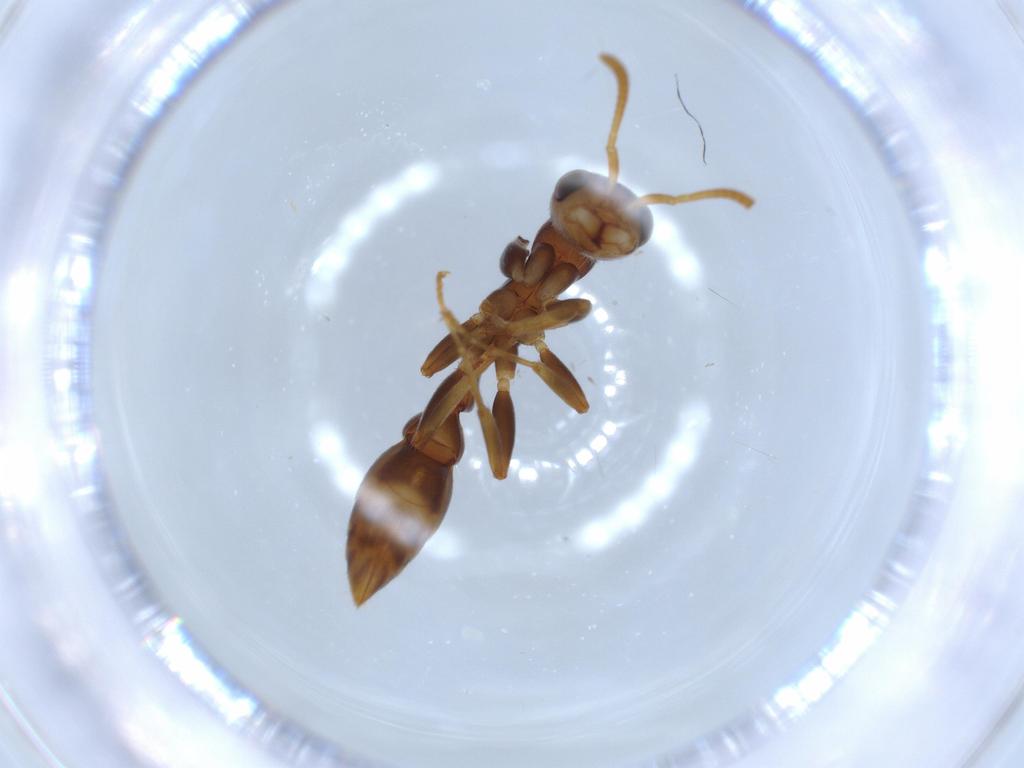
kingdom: Animalia
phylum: Arthropoda
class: Insecta
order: Hymenoptera
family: Formicidae
